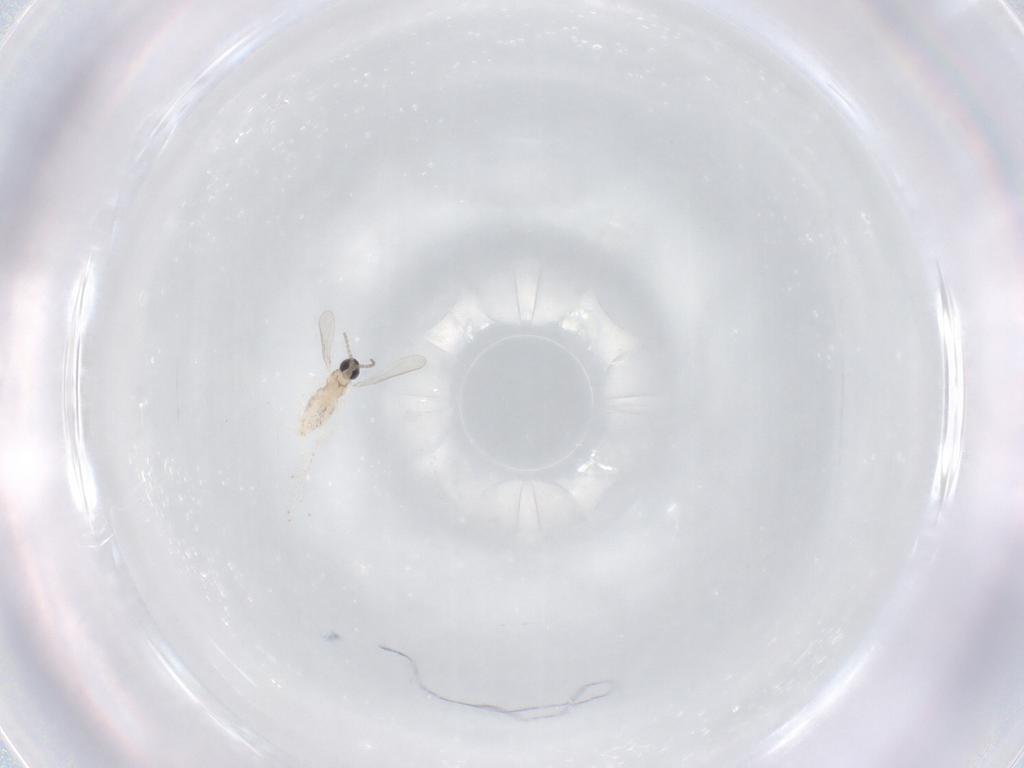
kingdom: Animalia
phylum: Arthropoda
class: Insecta
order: Diptera
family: Cecidomyiidae
